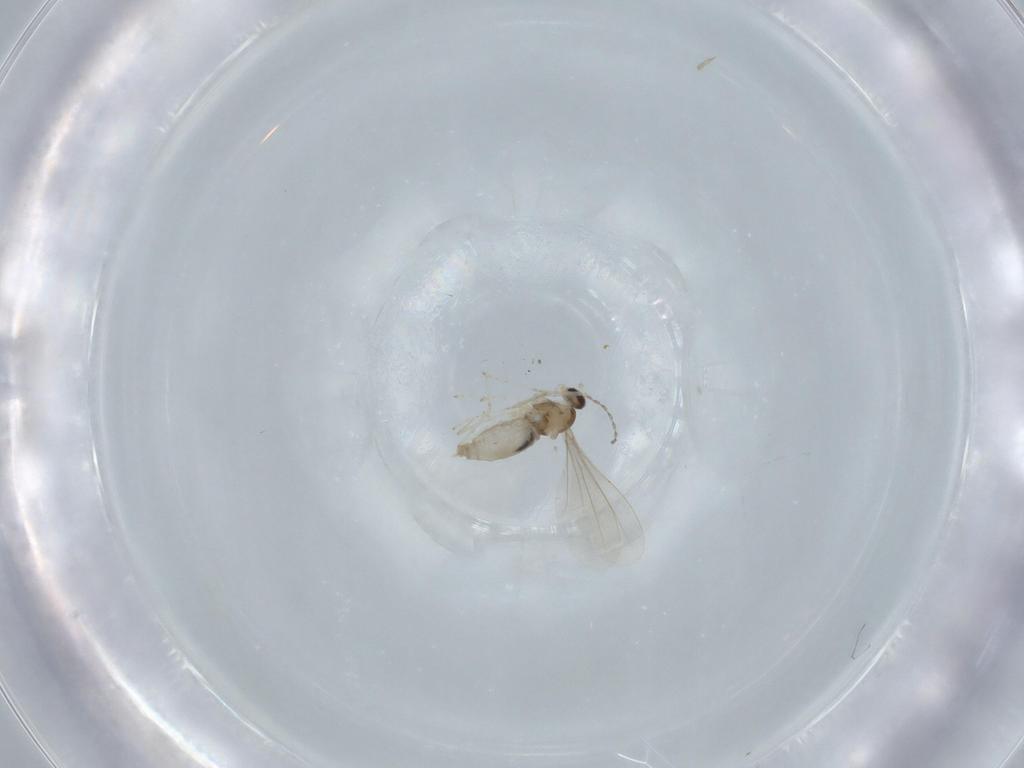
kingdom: Animalia
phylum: Arthropoda
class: Insecta
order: Diptera
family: Cecidomyiidae
